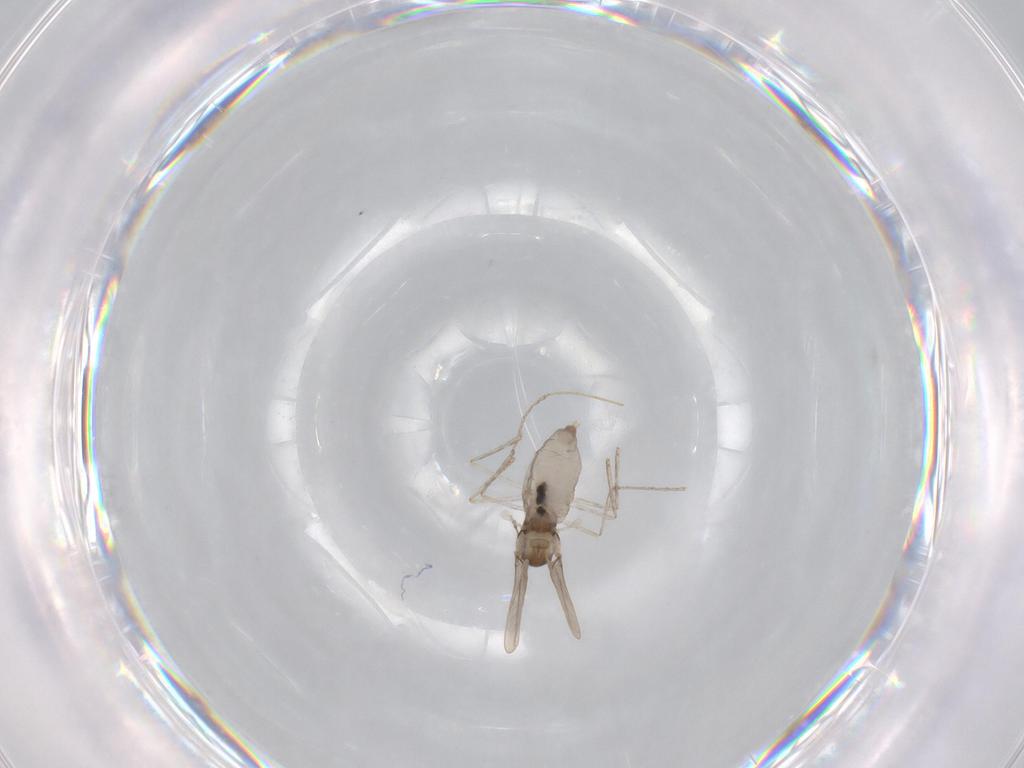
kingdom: Animalia
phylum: Arthropoda
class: Insecta
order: Diptera
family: Cecidomyiidae
